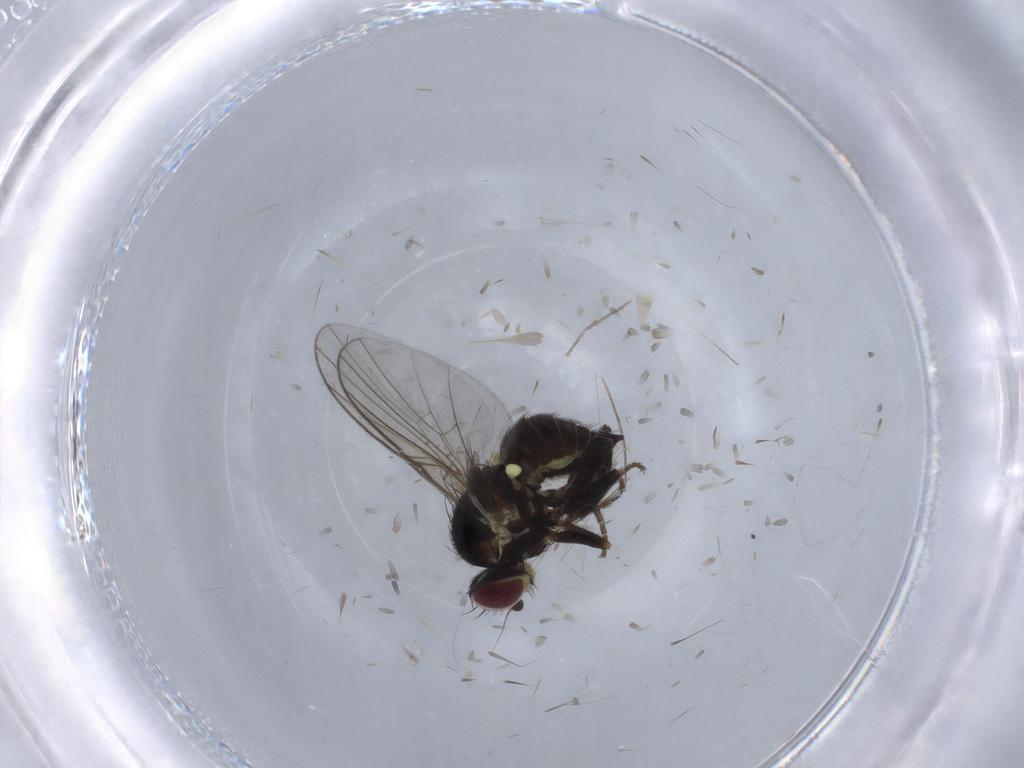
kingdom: Animalia
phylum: Arthropoda
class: Insecta
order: Diptera
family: Agromyzidae
